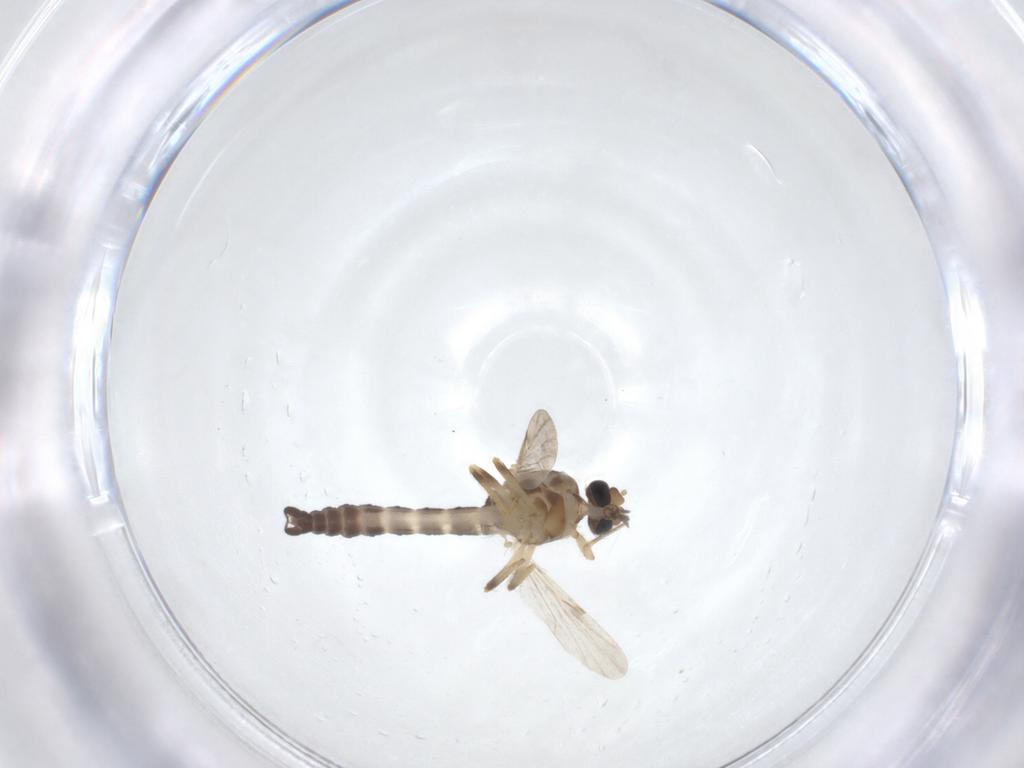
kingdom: Animalia
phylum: Arthropoda
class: Insecta
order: Diptera
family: Ceratopogonidae
